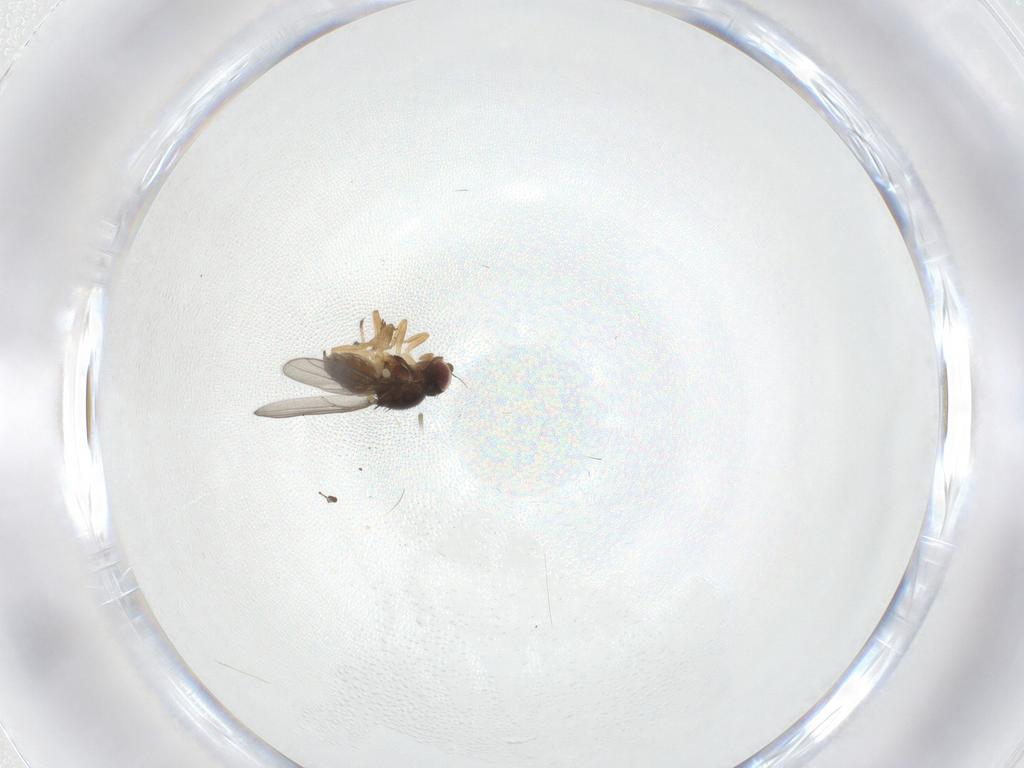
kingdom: Animalia
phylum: Arthropoda
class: Insecta
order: Diptera
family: Chloropidae
